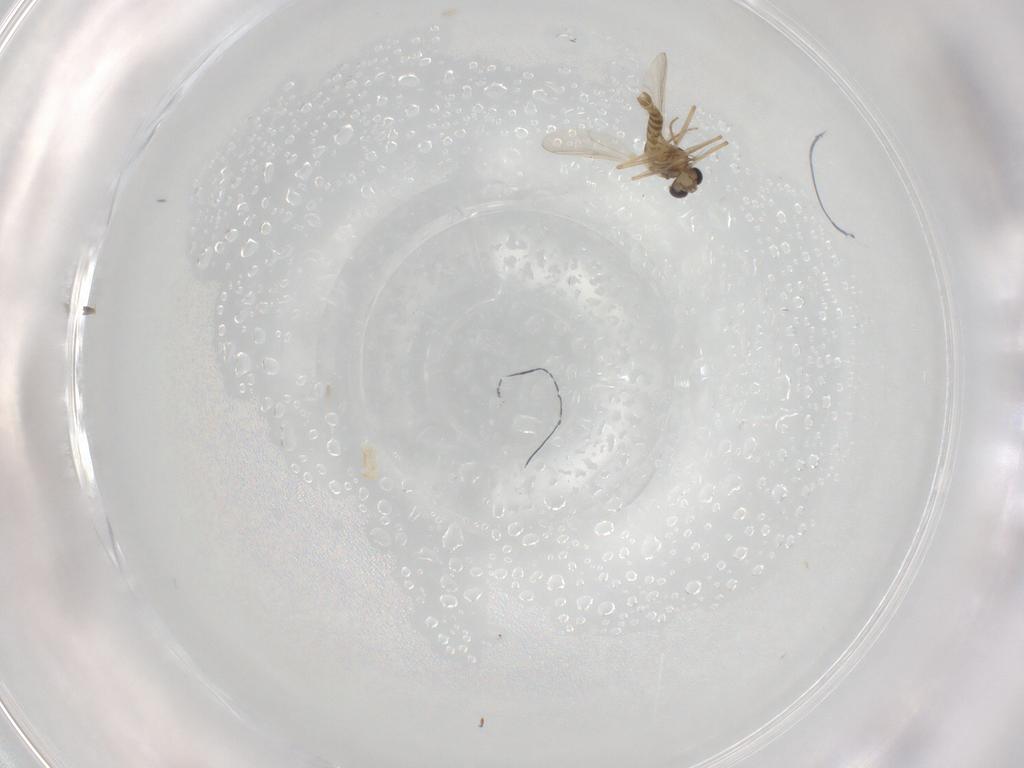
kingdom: Animalia
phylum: Arthropoda
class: Insecta
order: Diptera
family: Chironomidae
